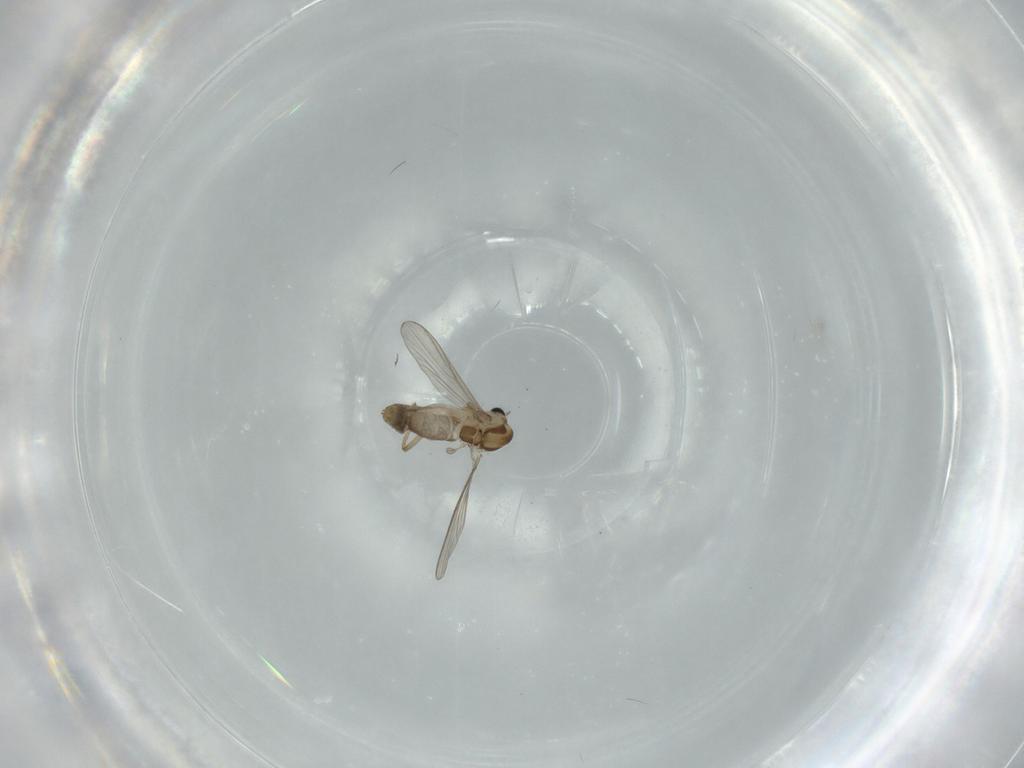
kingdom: Animalia
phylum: Arthropoda
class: Insecta
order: Diptera
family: Chironomidae
